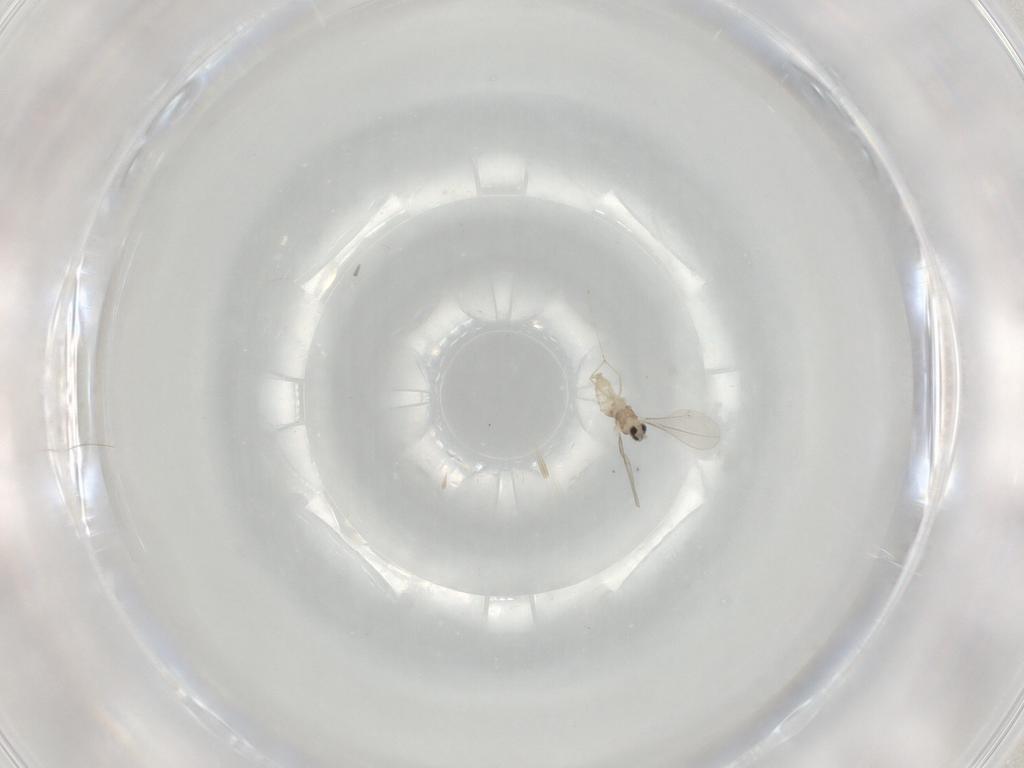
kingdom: Animalia
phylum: Arthropoda
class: Insecta
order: Diptera
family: Cecidomyiidae
